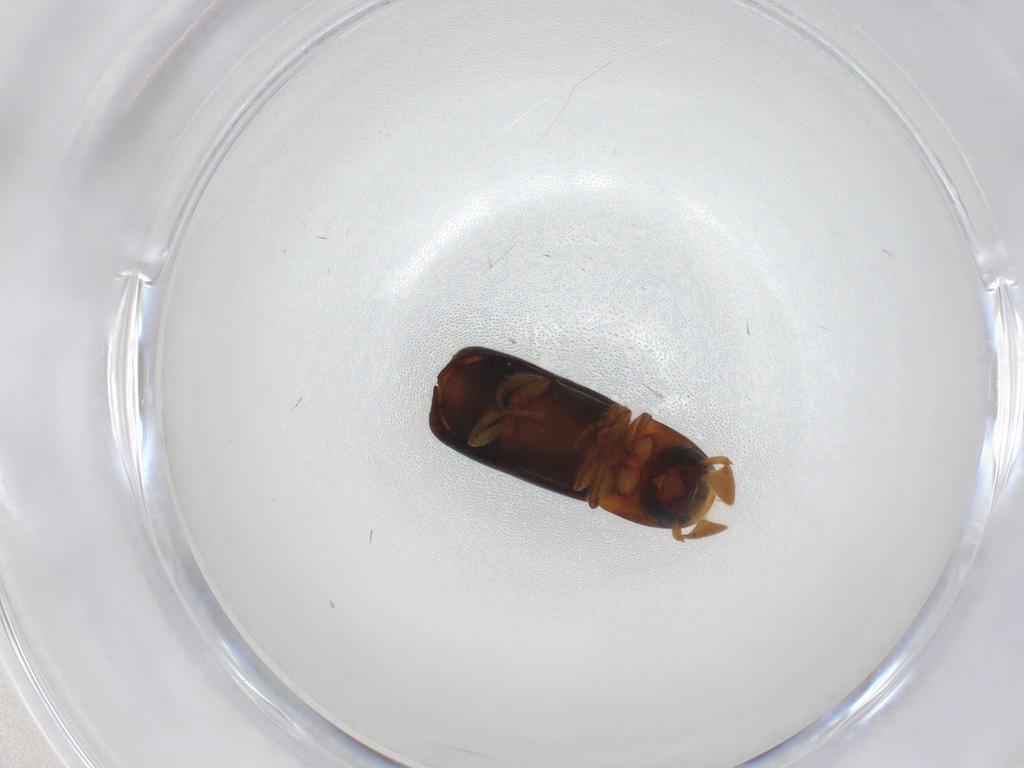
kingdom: Animalia
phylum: Arthropoda
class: Insecta
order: Coleoptera
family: Curculionidae
